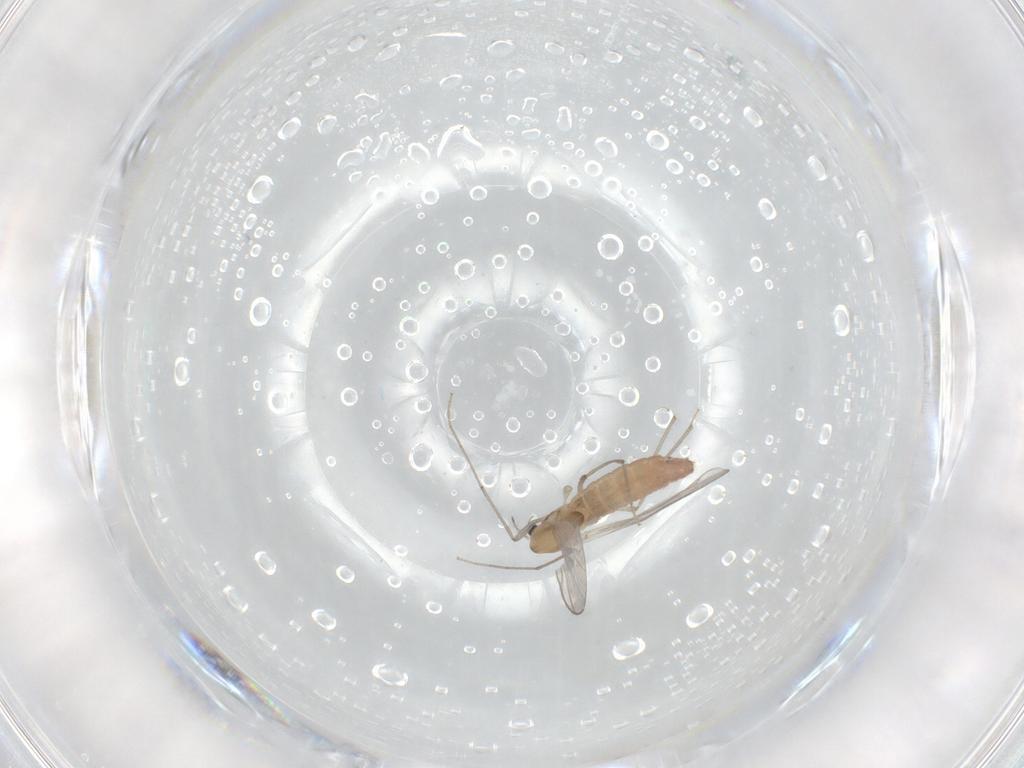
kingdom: Animalia
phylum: Arthropoda
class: Insecta
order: Diptera
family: Chironomidae
